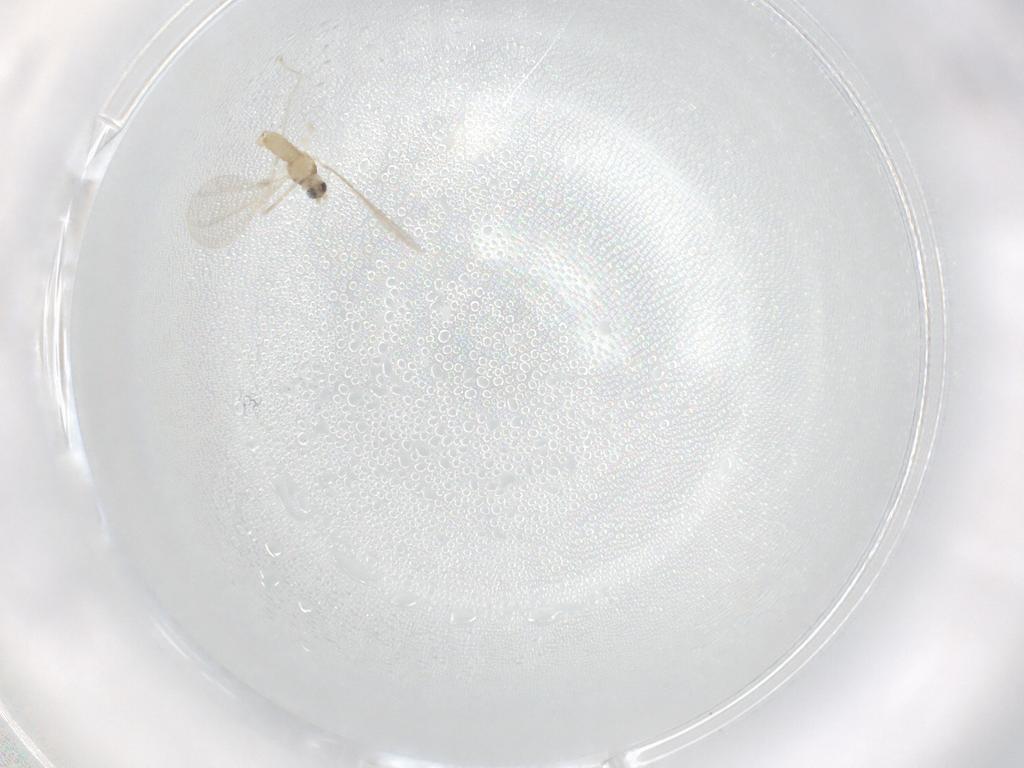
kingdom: Animalia
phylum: Arthropoda
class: Insecta
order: Diptera
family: Cecidomyiidae
